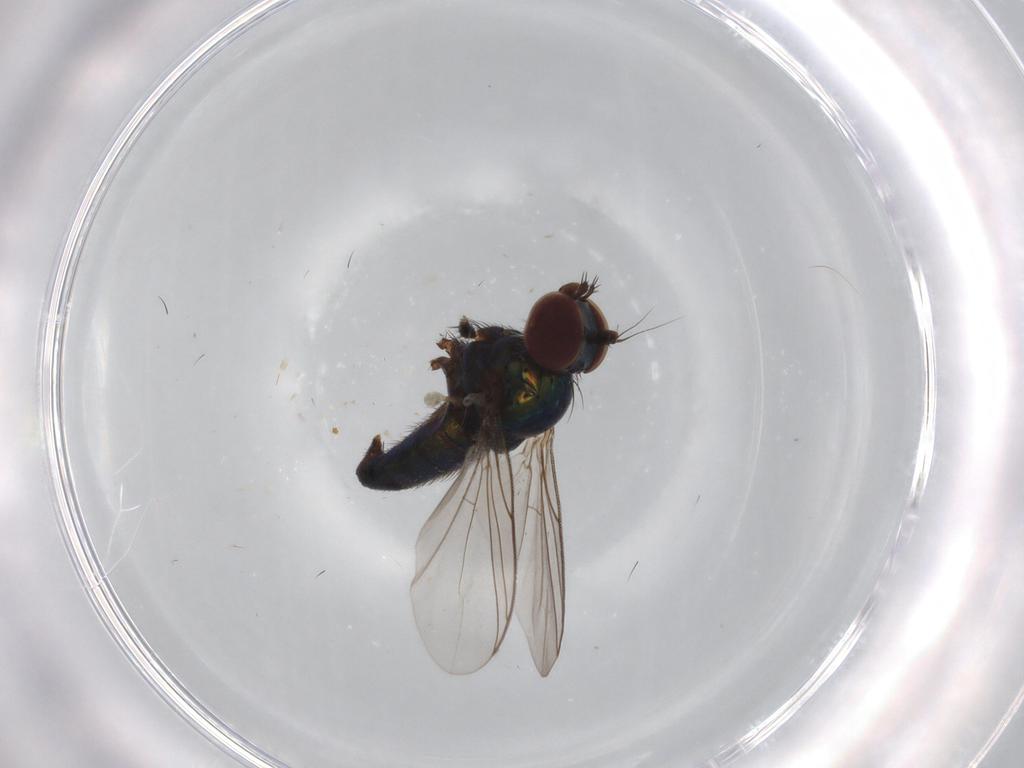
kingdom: Animalia
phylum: Arthropoda
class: Insecta
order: Diptera
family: Dolichopodidae
